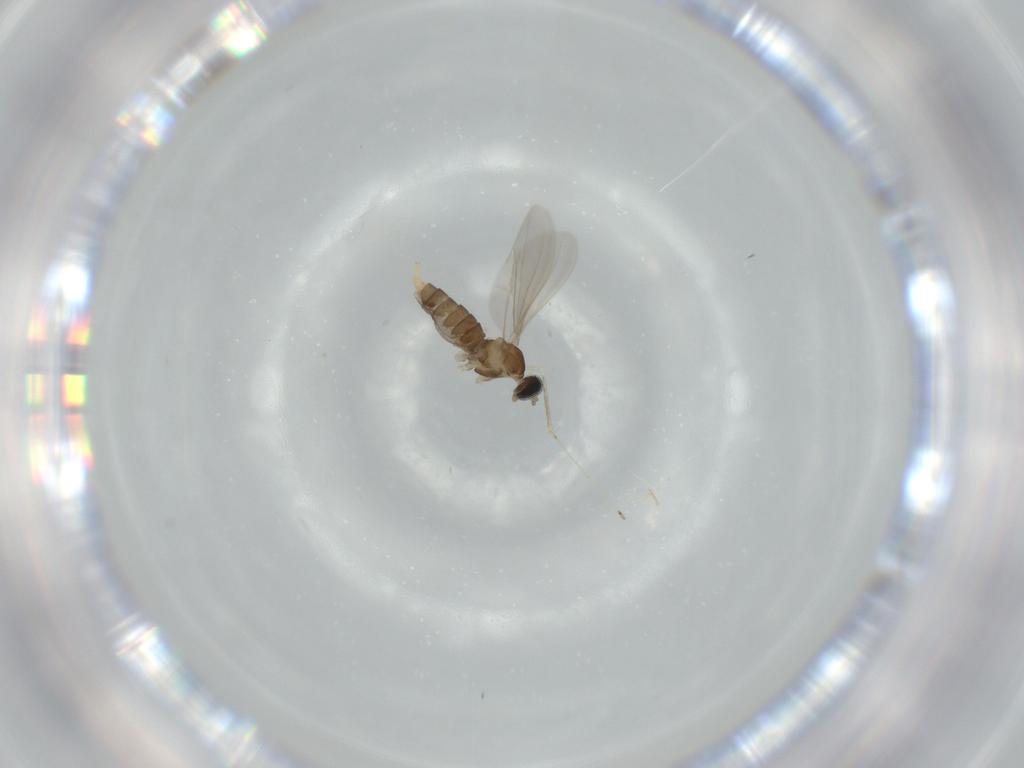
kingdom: Animalia
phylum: Arthropoda
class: Insecta
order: Diptera
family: Cecidomyiidae
